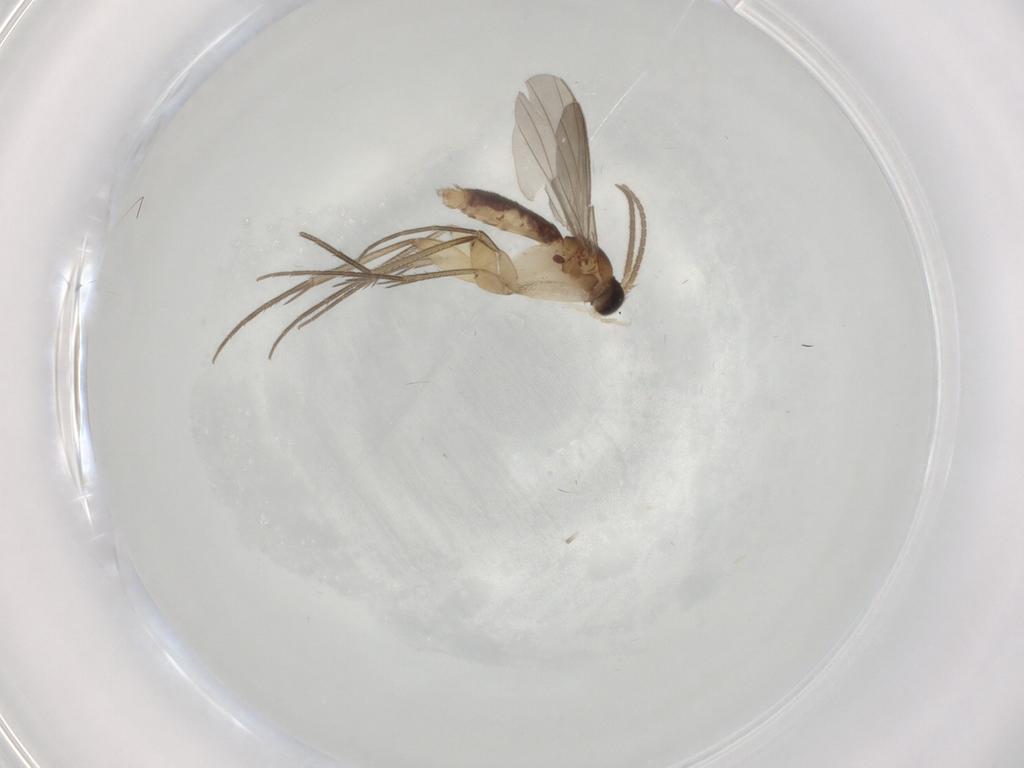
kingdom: Animalia
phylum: Arthropoda
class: Insecta
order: Diptera
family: Mycetophilidae
